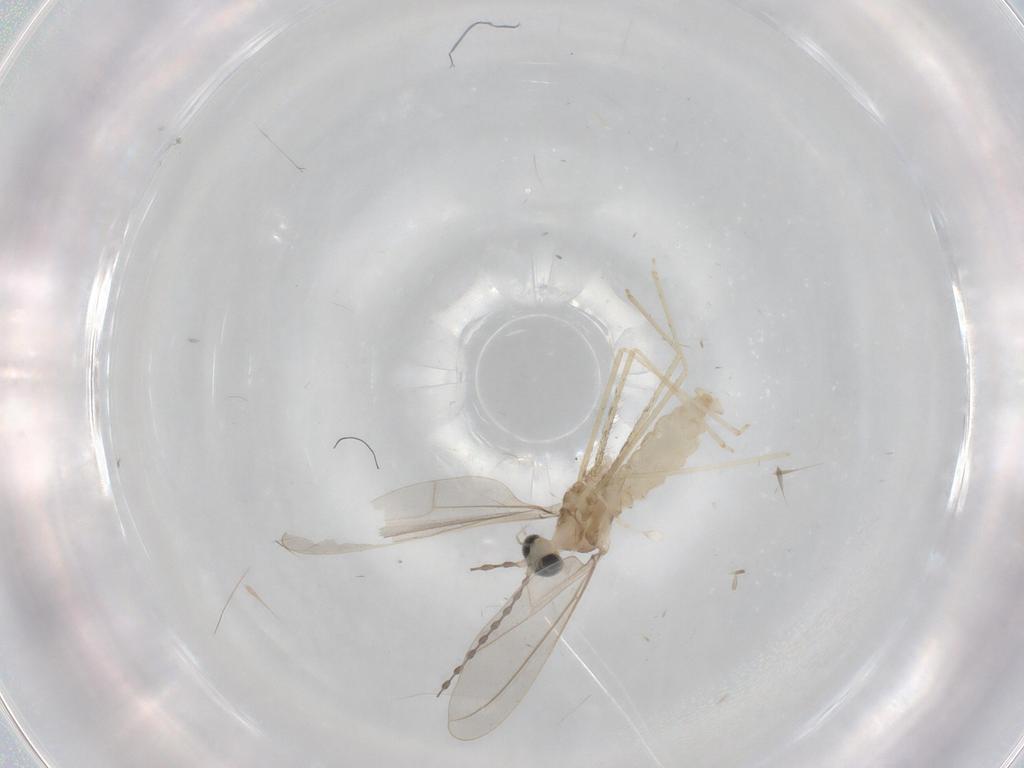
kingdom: Animalia
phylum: Arthropoda
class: Insecta
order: Diptera
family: Cecidomyiidae
